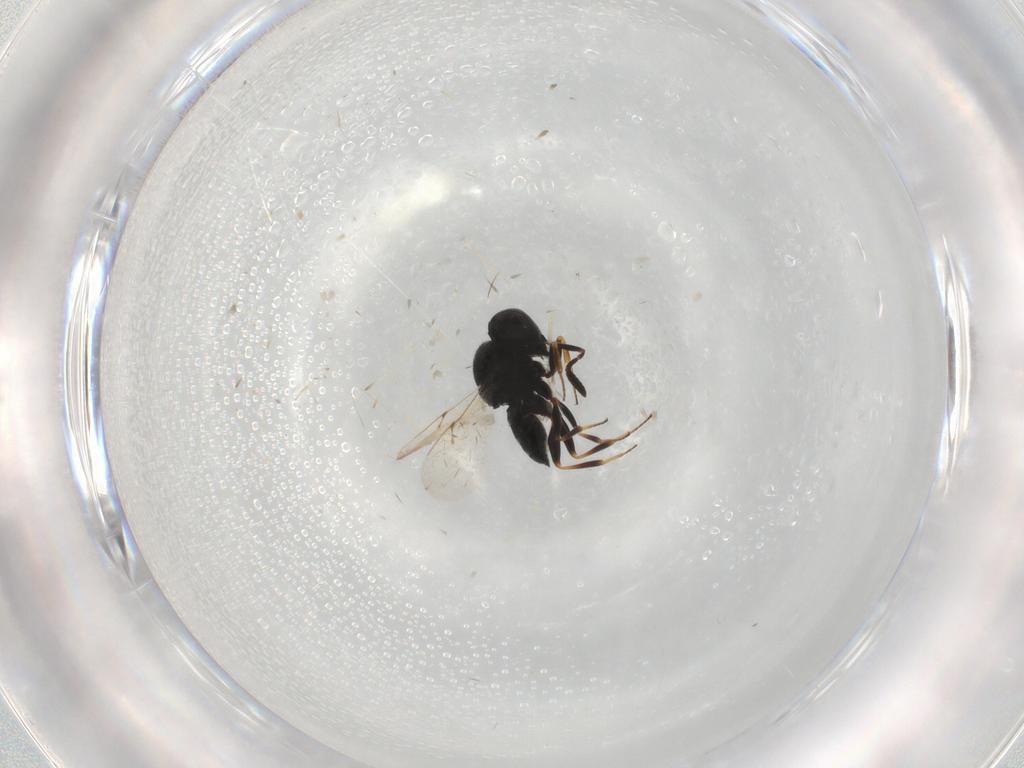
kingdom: Animalia
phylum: Arthropoda
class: Insecta
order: Hymenoptera
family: Scelionidae
